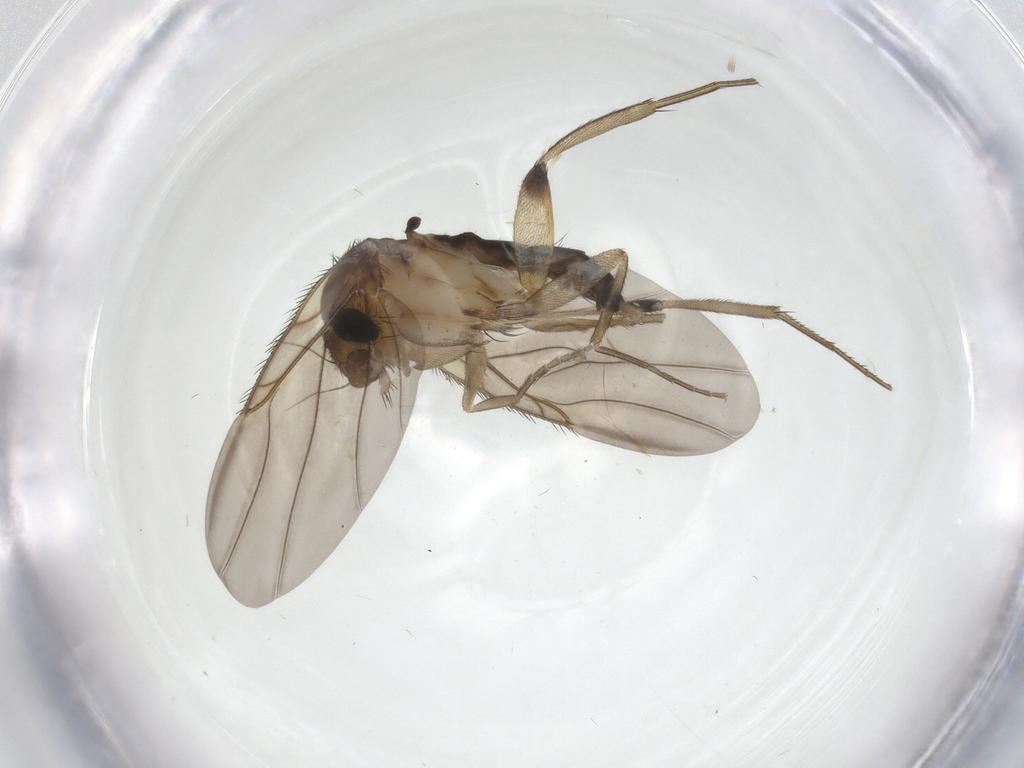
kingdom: Animalia
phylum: Arthropoda
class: Insecta
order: Diptera
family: Phoridae
